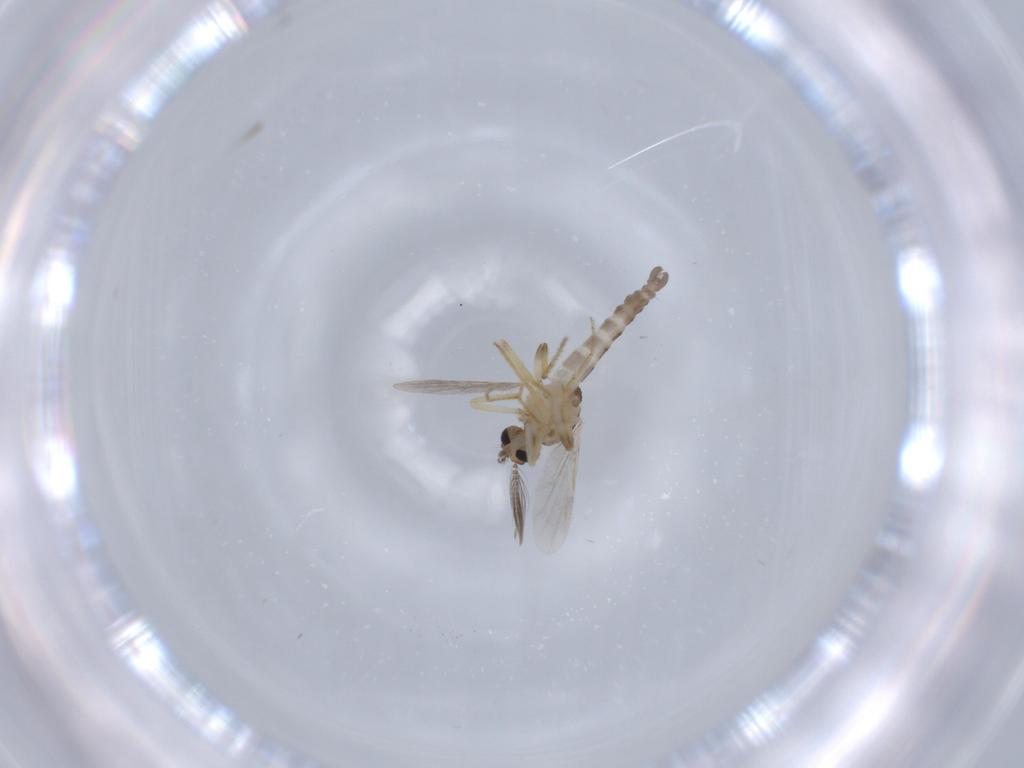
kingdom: Animalia
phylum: Arthropoda
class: Insecta
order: Diptera
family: Ceratopogonidae
